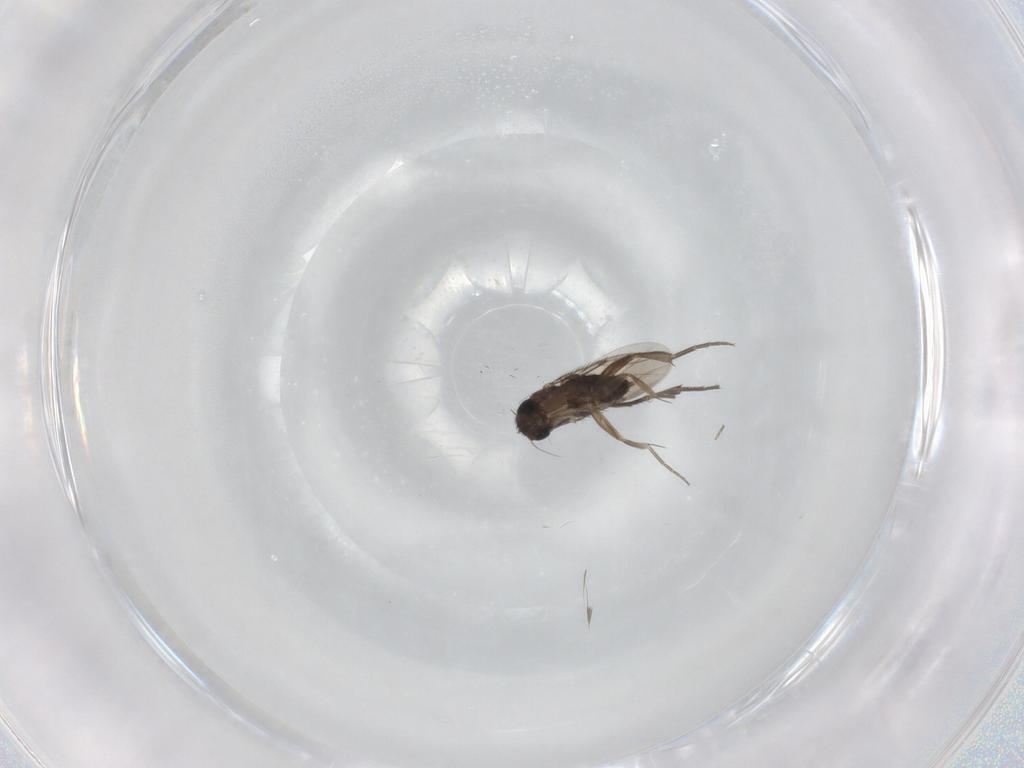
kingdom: Animalia
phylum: Arthropoda
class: Insecta
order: Diptera
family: Phoridae
